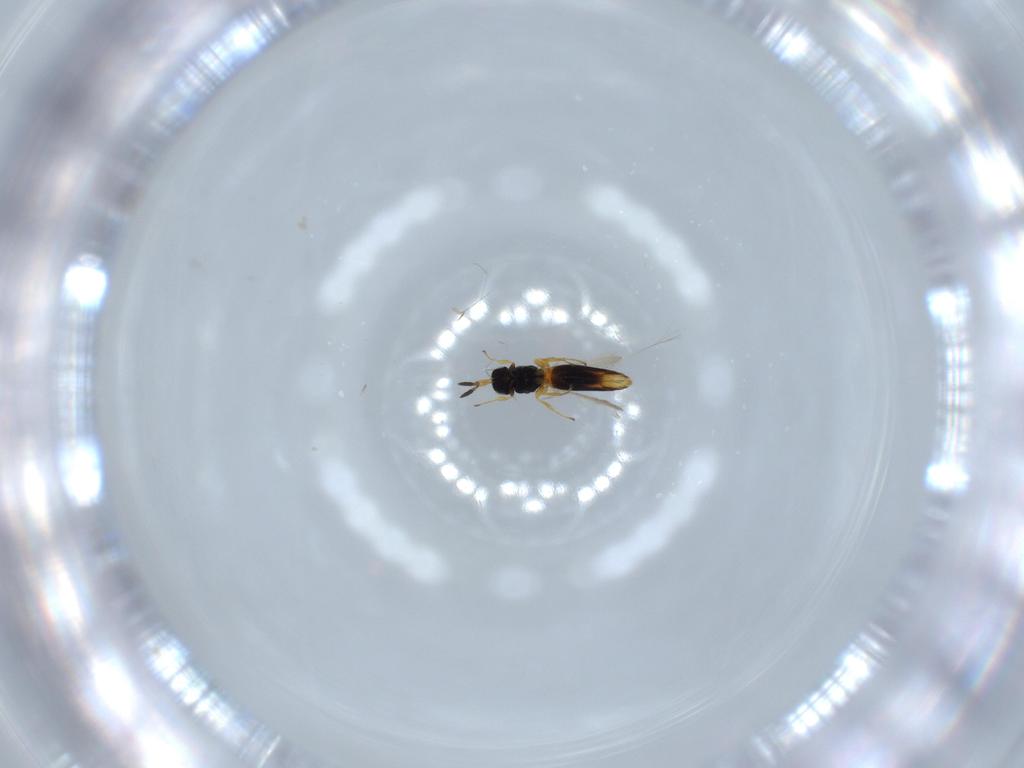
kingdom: Animalia
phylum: Arthropoda
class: Insecta
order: Hymenoptera
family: Scelionidae
